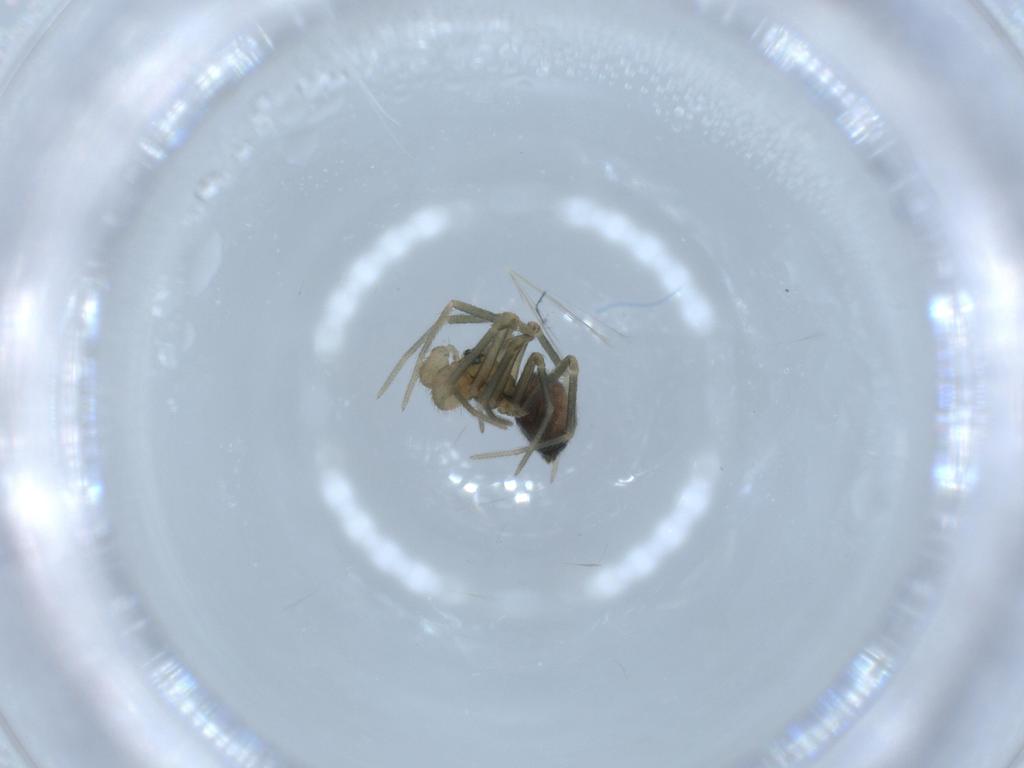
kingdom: Animalia
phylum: Arthropoda
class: Arachnida
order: Araneae
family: Linyphiidae
